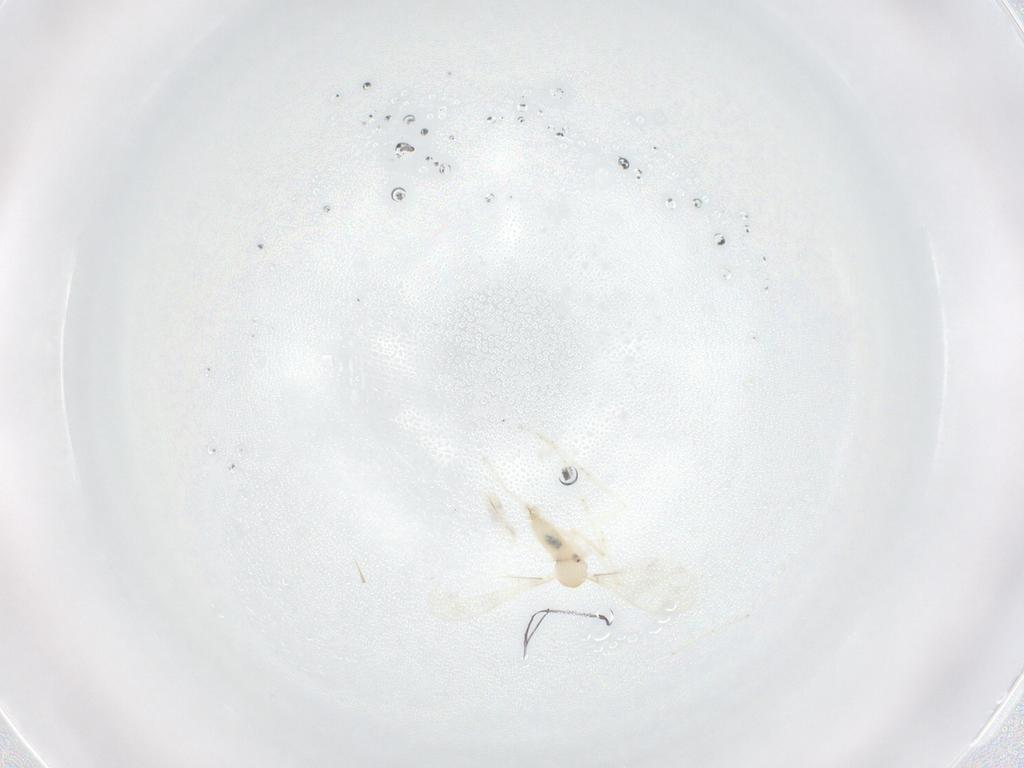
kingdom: Animalia
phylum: Arthropoda
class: Insecta
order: Diptera
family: Cecidomyiidae
